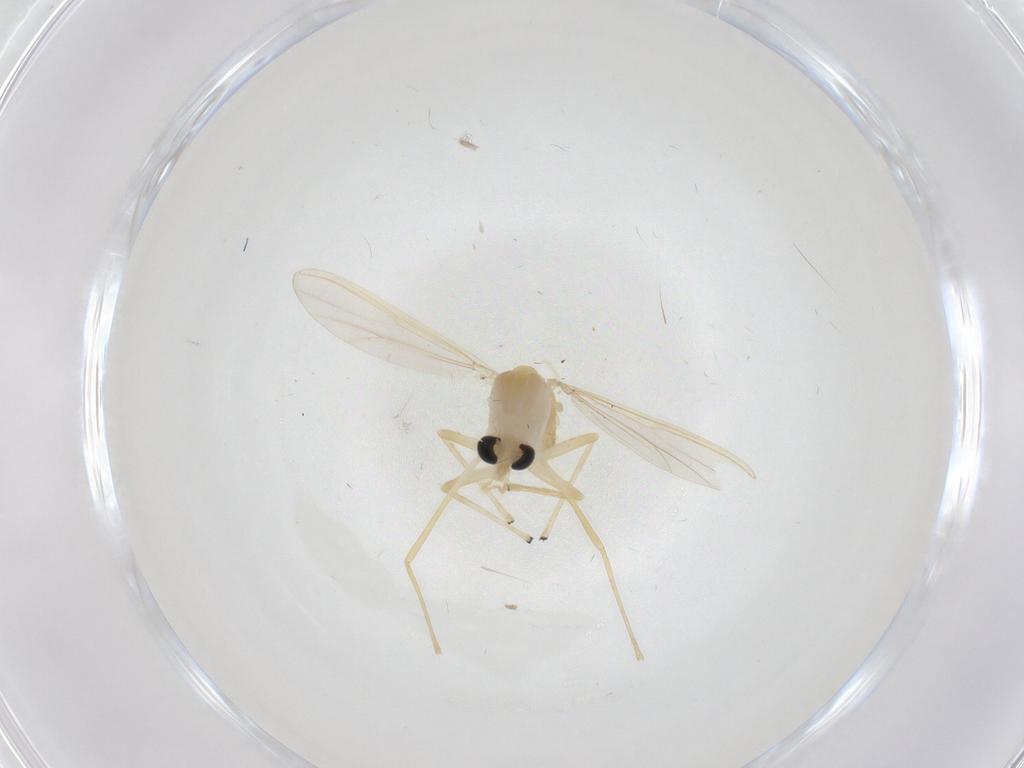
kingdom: Animalia
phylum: Arthropoda
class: Insecta
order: Diptera
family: Chironomidae
